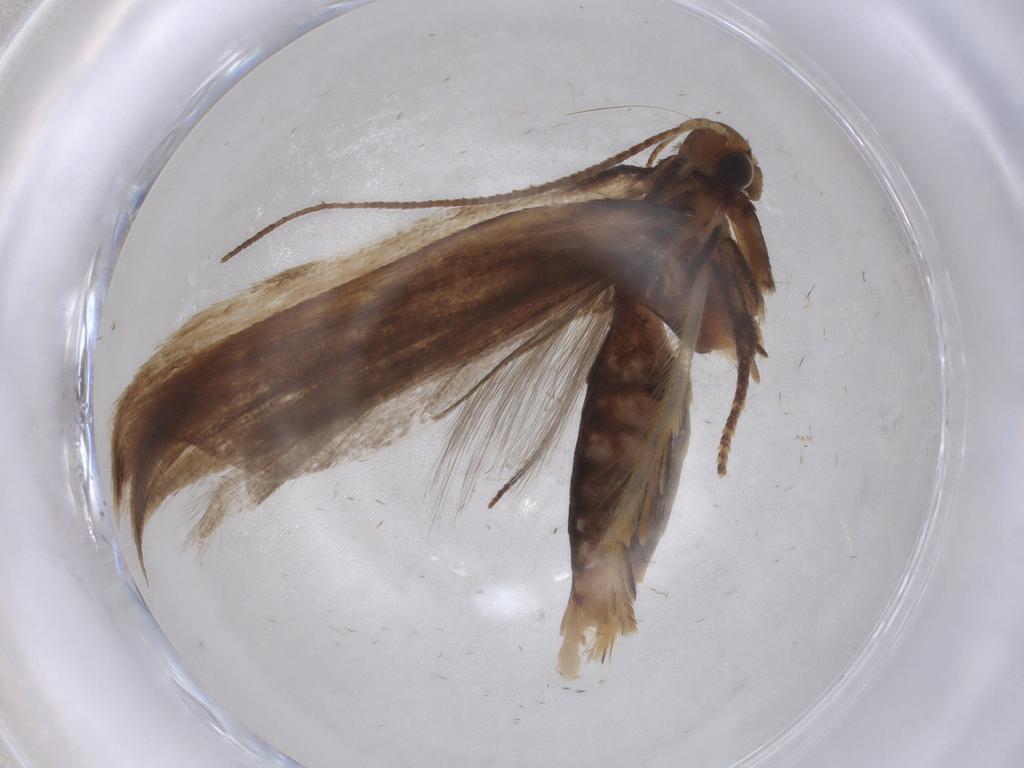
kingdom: Animalia
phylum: Arthropoda
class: Insecta
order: Lepidoptera
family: Gelechiidae
